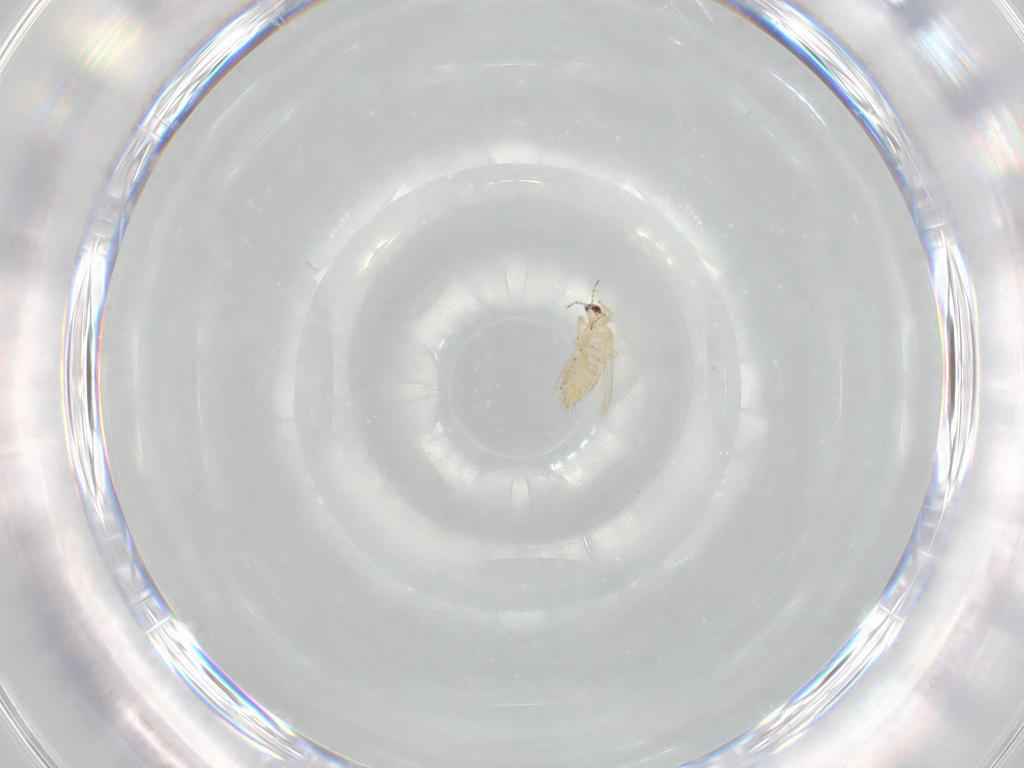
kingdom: Animalia
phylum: Arthropoda
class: Insecta
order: Thysanoptera
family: Thripidae
